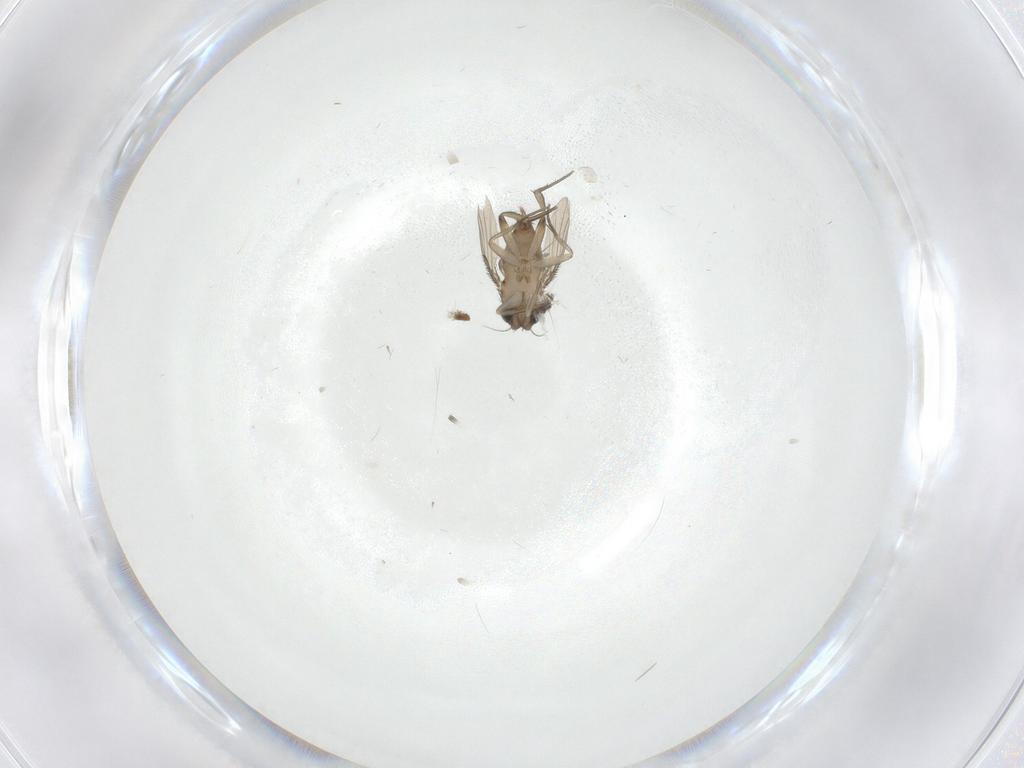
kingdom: Animalia
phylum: Arthropoda
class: Insecta
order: Diptera
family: Phoridae
